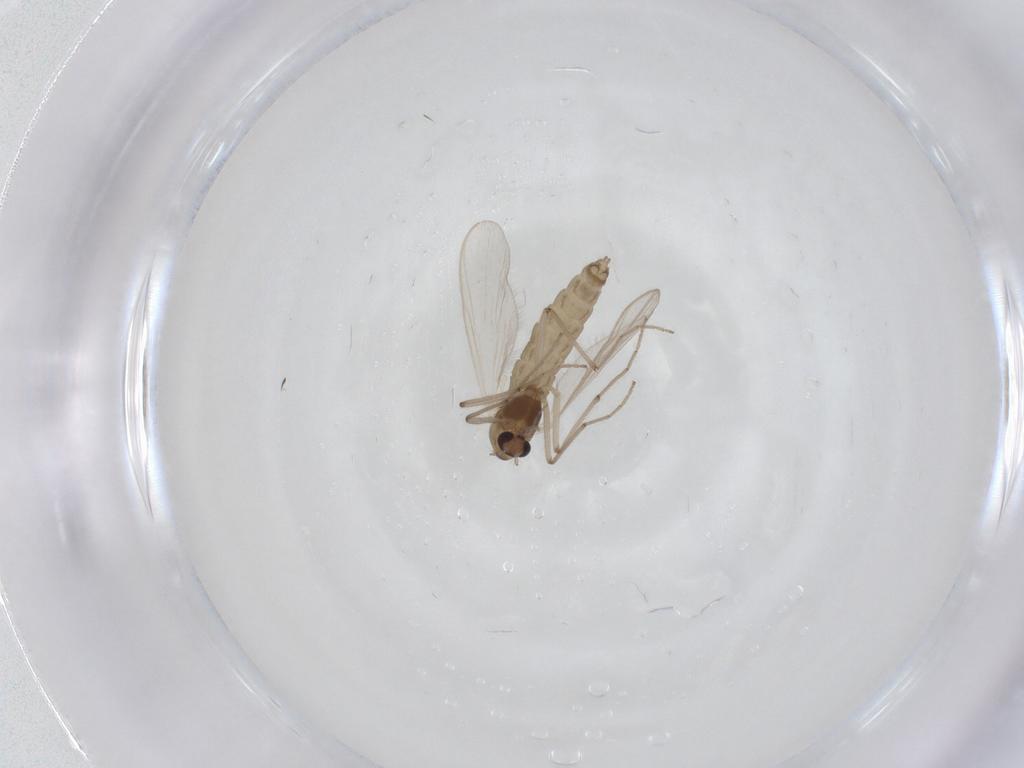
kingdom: Animalia
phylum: Arthropoda
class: Insecta
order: Diptera
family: Chironomidae
